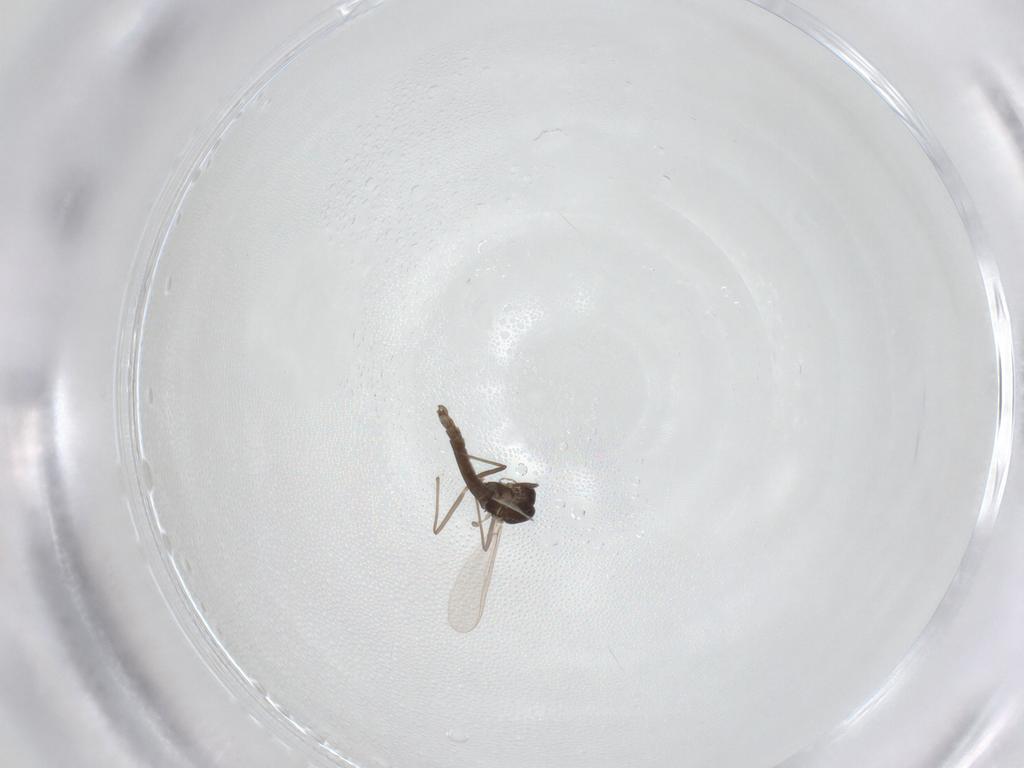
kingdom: Animalia
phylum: Arthropoda
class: Insecta
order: Diptera
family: Chironomidae
